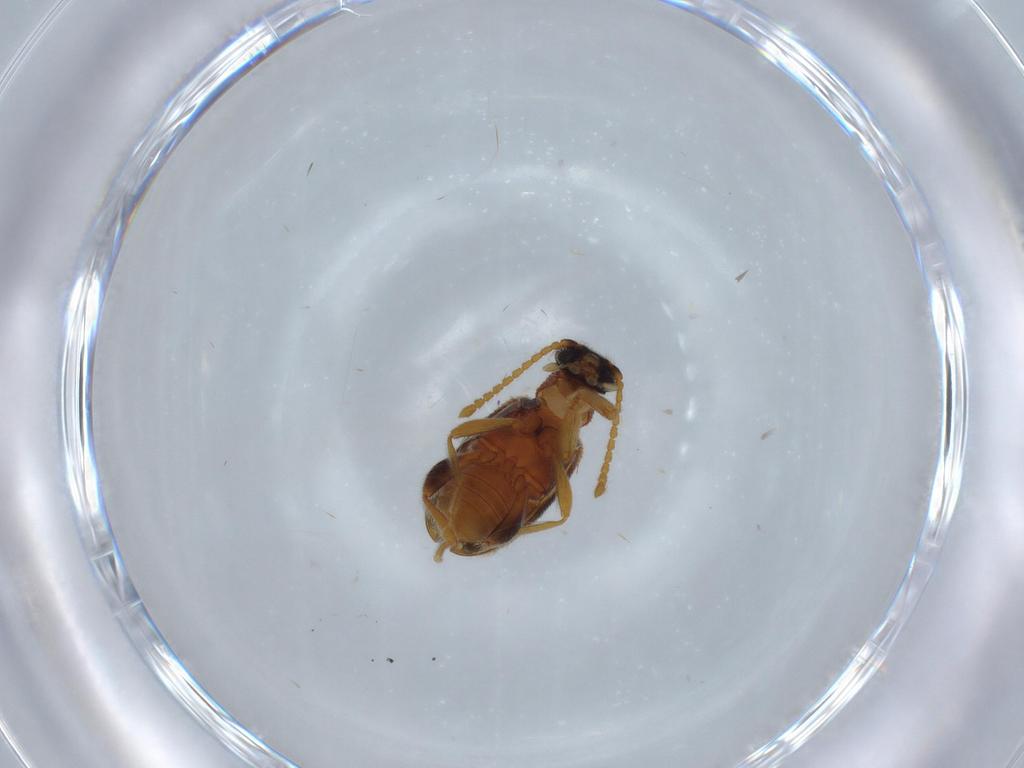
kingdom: Animalia
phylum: Arthropoda
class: Insecta
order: Coleoptera
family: Aderidae
